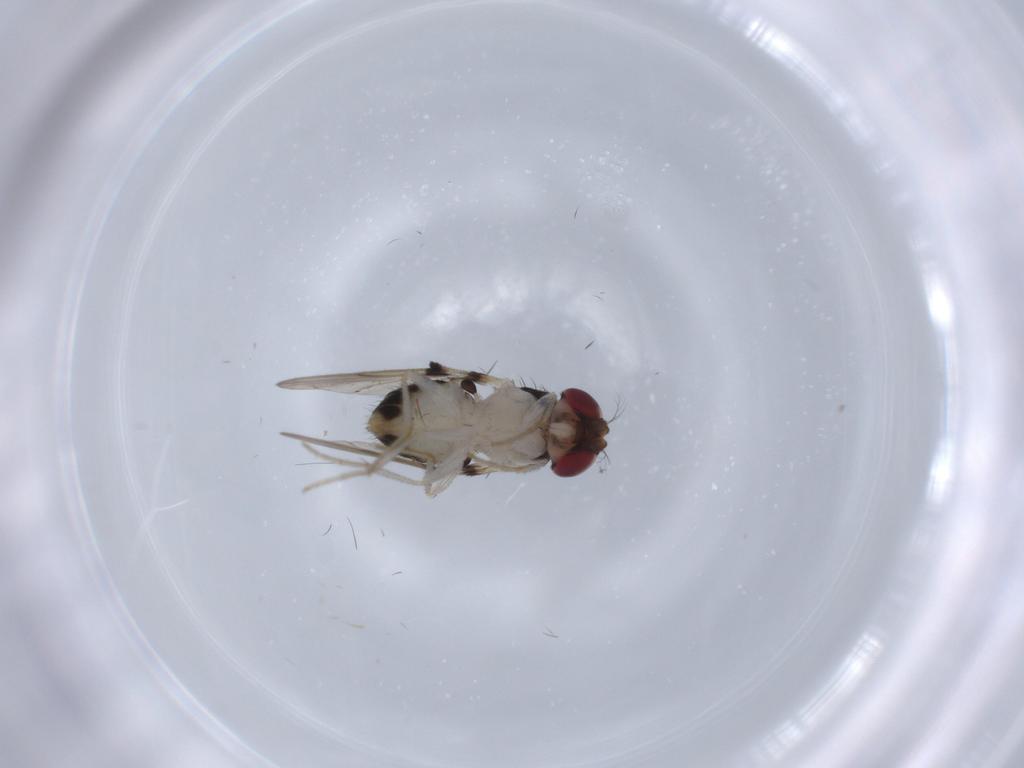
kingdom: Animalia
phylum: Arthropoda
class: Insecta
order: Diptera
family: Drosophilidae
